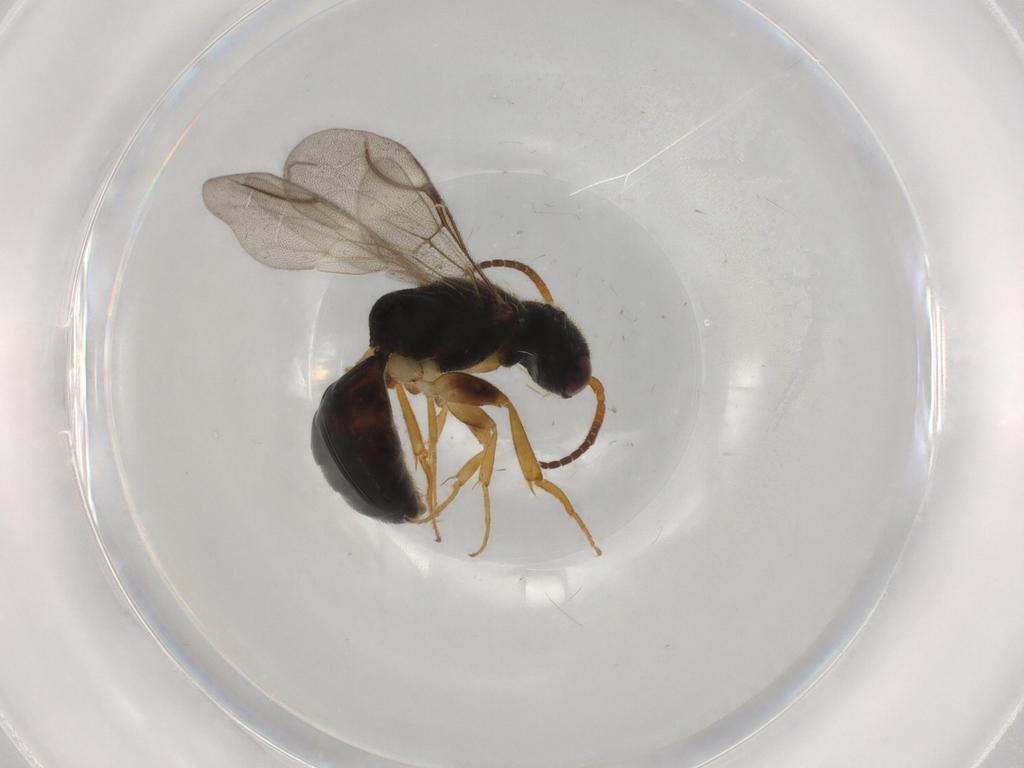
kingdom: Animalia
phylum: Arthropoda
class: Insecta
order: Hymenoptera
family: Bethylidae
